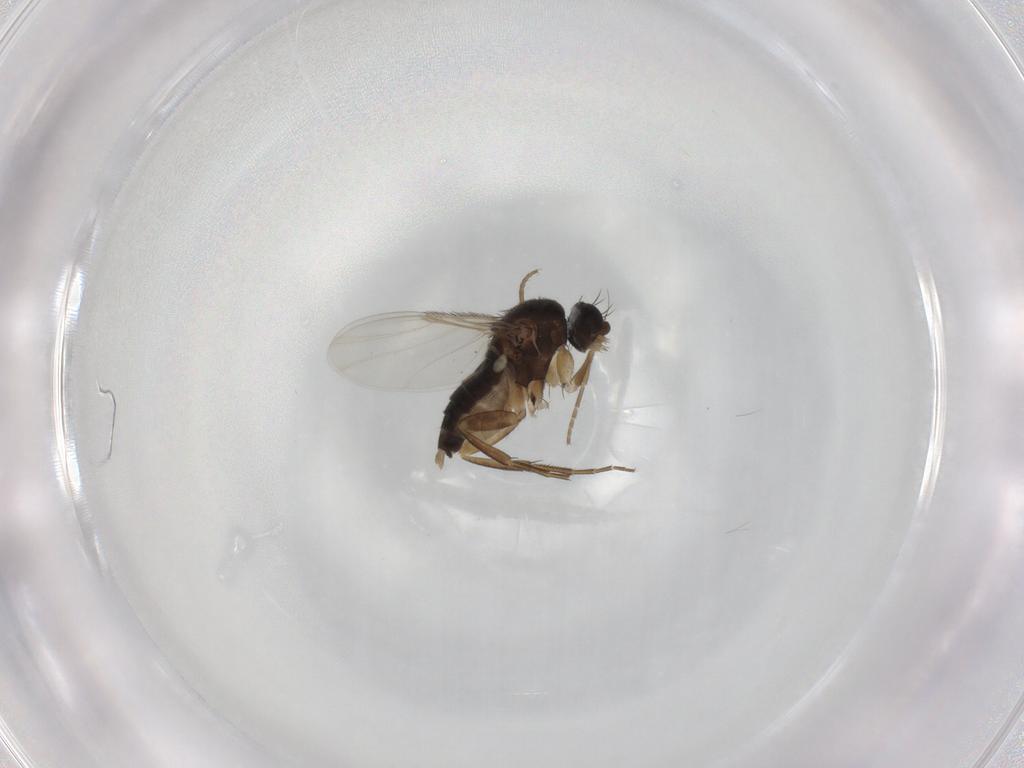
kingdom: Animalia
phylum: Arthropoda
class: Insecta
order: Diptera
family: Phoridae
